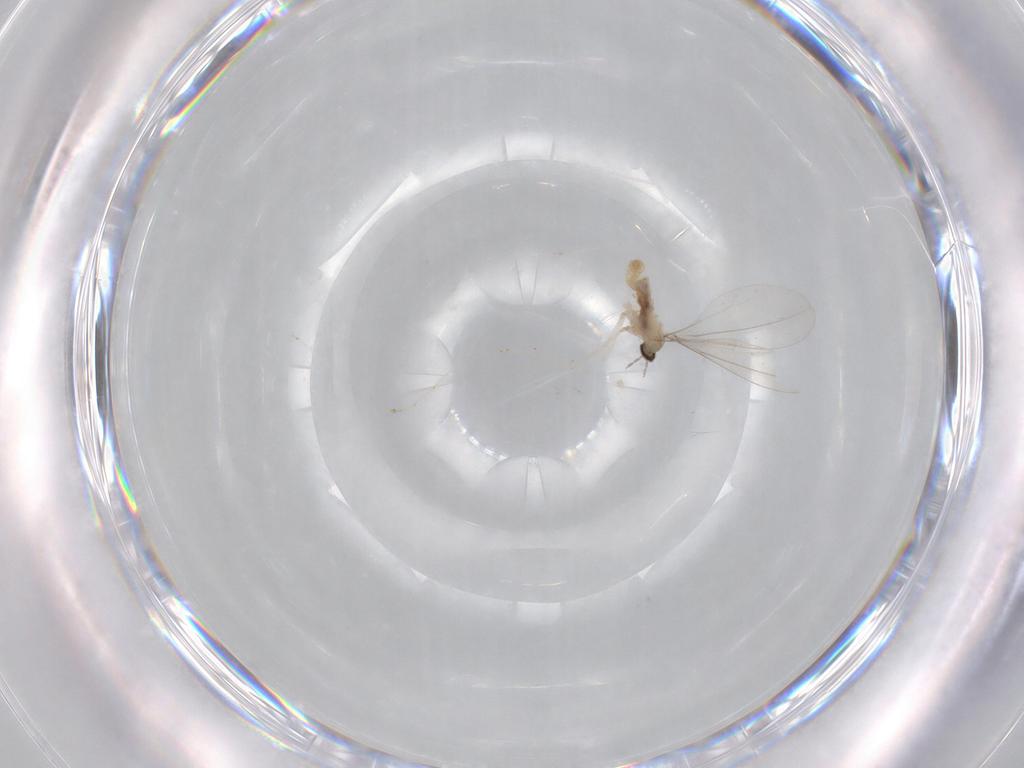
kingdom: Animalia
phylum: Arthropoda
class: Insecta
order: Diptera
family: Cecidomyiidae
